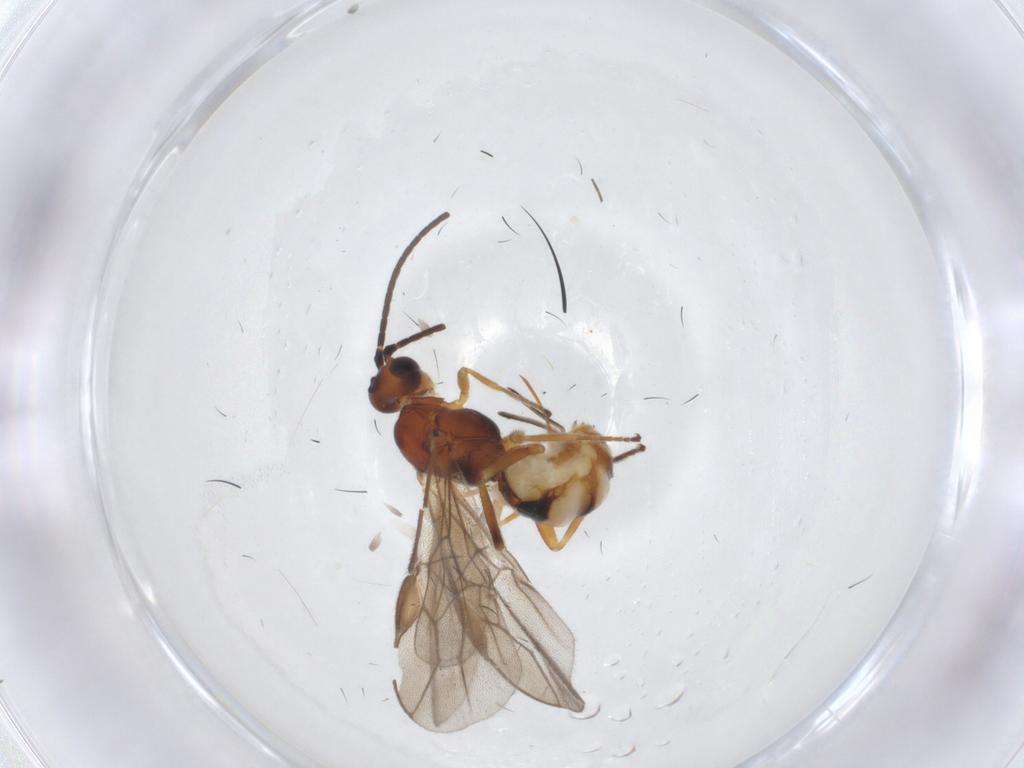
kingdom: Animalia
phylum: Arthropoda
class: Insecta
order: Hymenoptera
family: Braconidae
